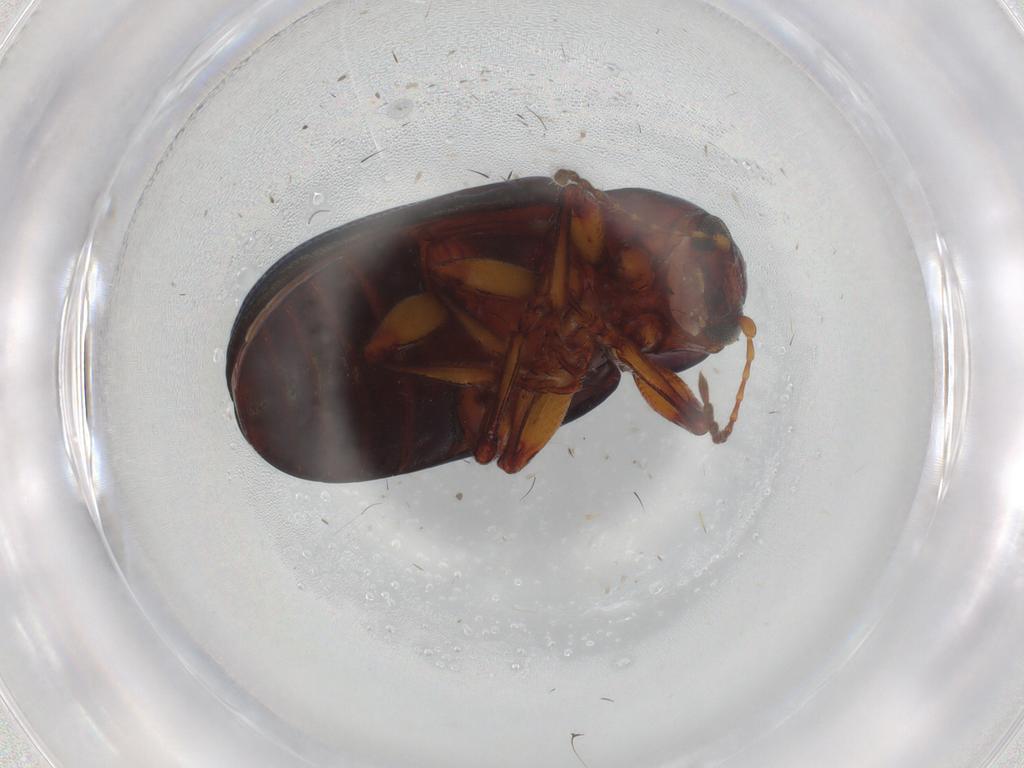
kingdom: Animalia
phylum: Arthropoda
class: Insecta
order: Coleoptera
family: Chrysomelidae
